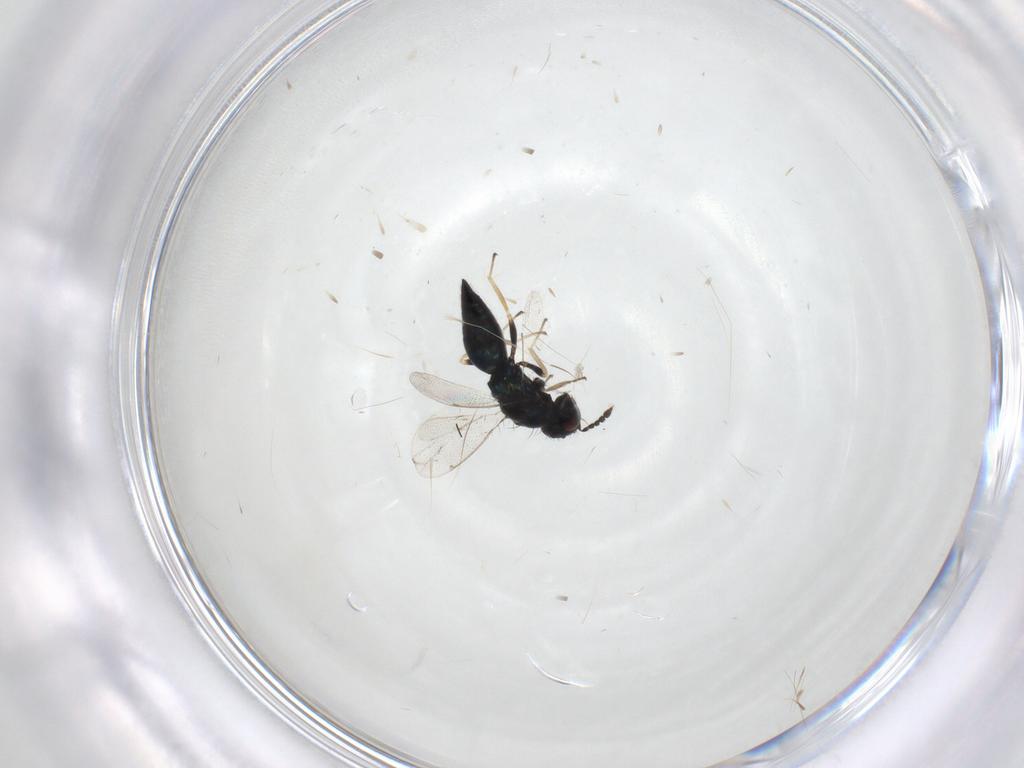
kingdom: Animalia
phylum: Arthropoda
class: Insecta
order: Hymenoptera
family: Eulophidae
